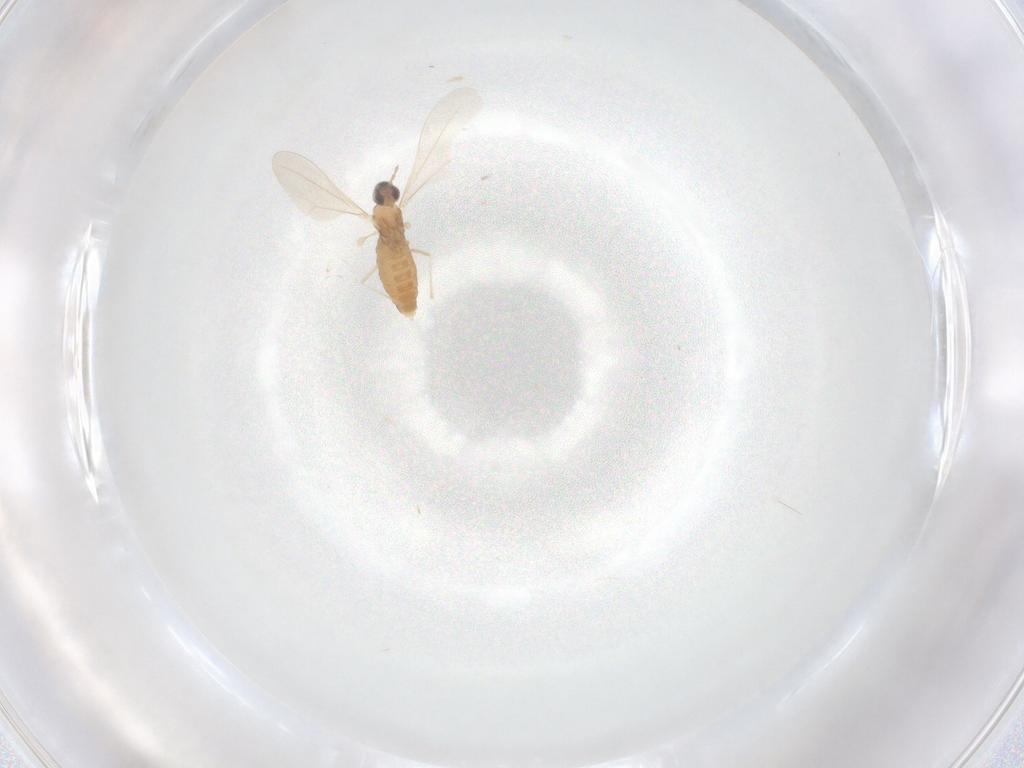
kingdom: Animalia
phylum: Arthropoda
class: Insecta
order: Diptera
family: Cecidomyiidae
